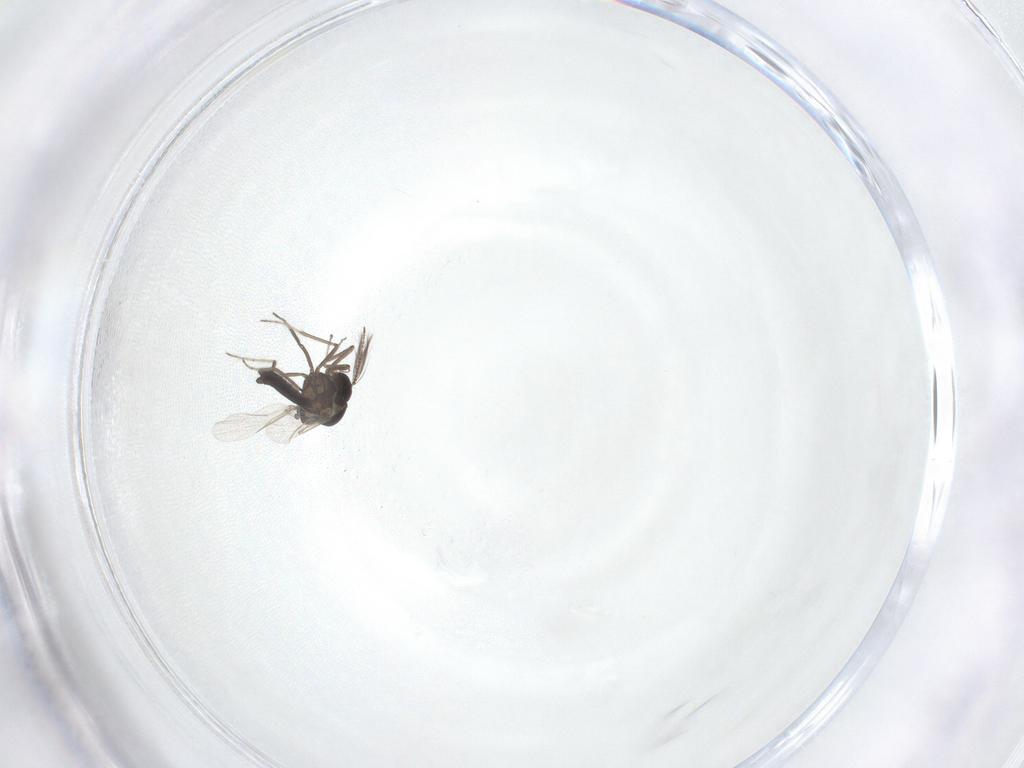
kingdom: Animalia
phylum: Arthropoda
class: Insecta
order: Diptera
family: Ceratopogonidae
